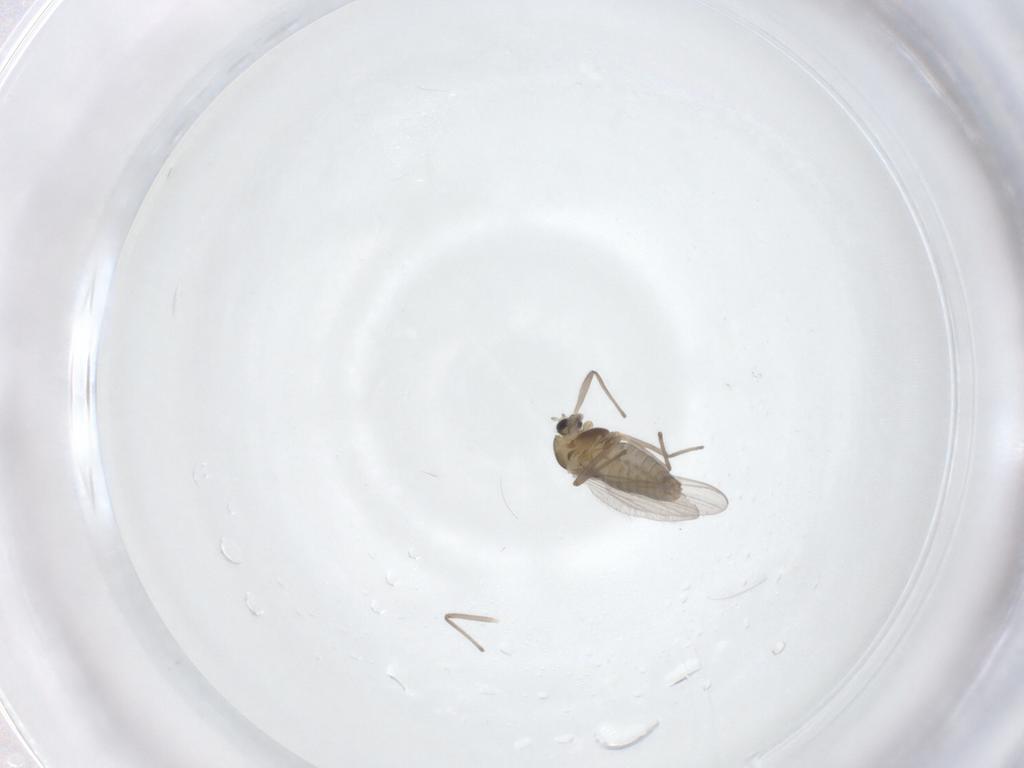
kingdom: Animalia
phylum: Arthropoda
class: Insecta
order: Diptera
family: Chironomidae
